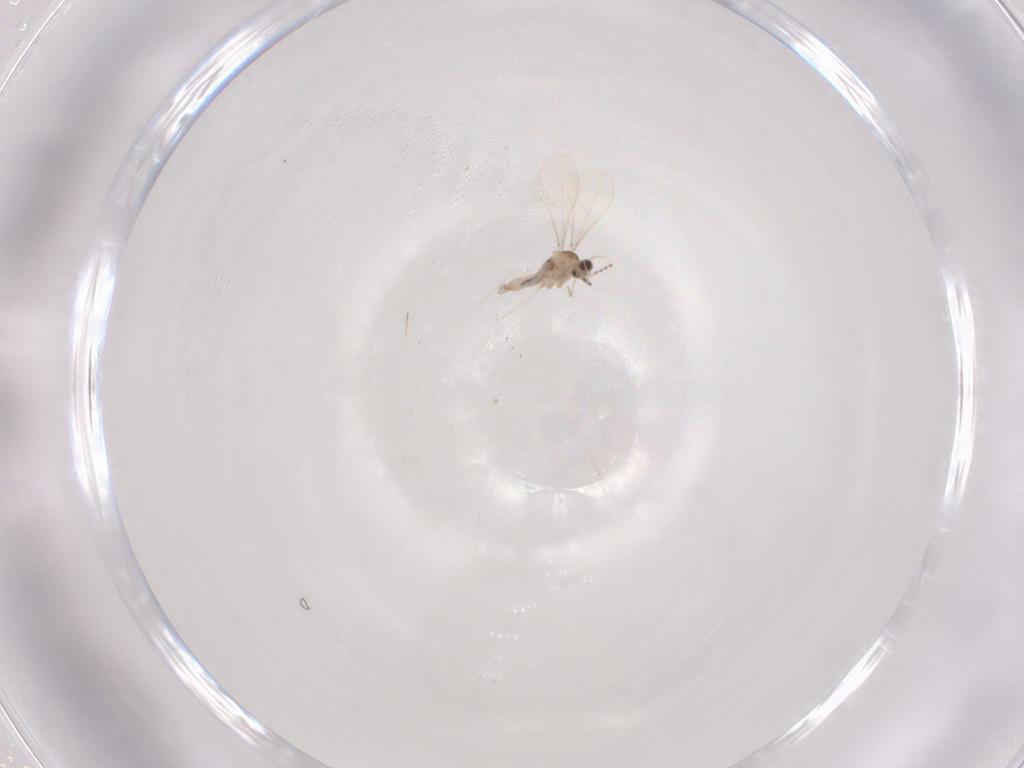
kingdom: Animalia
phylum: Arthropoda
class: Insecta
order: Diptera
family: Cecidomyiidae
